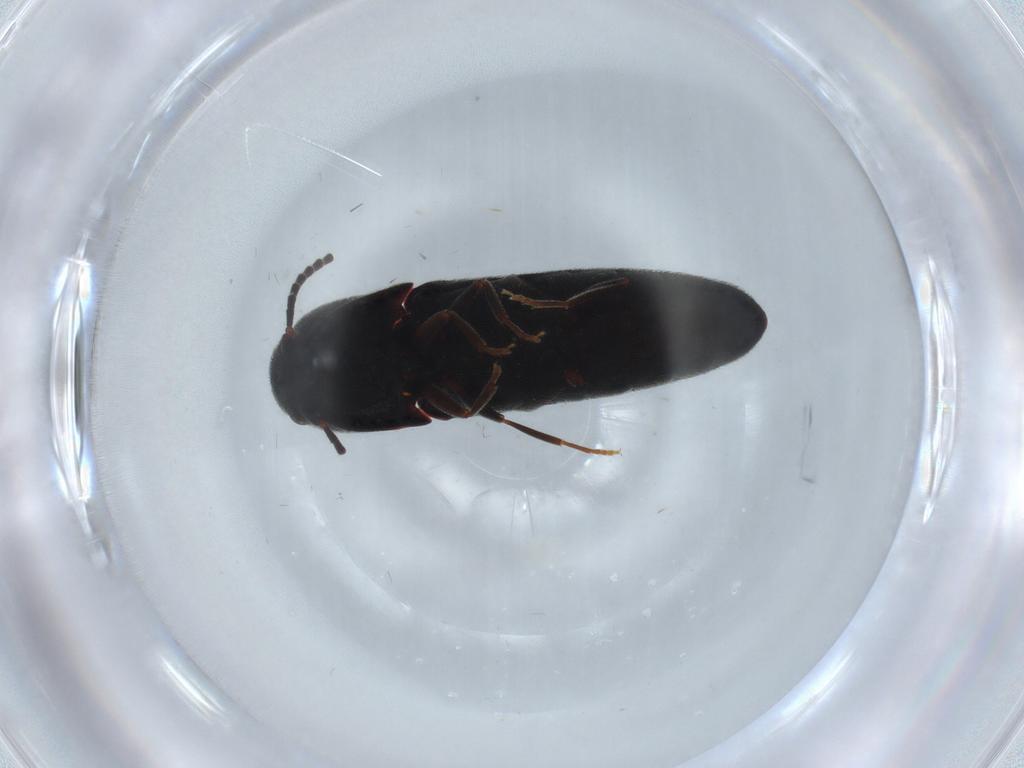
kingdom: Animalia
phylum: Arthropoda
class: Insecta
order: Coleoptera
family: Eucnemidae
